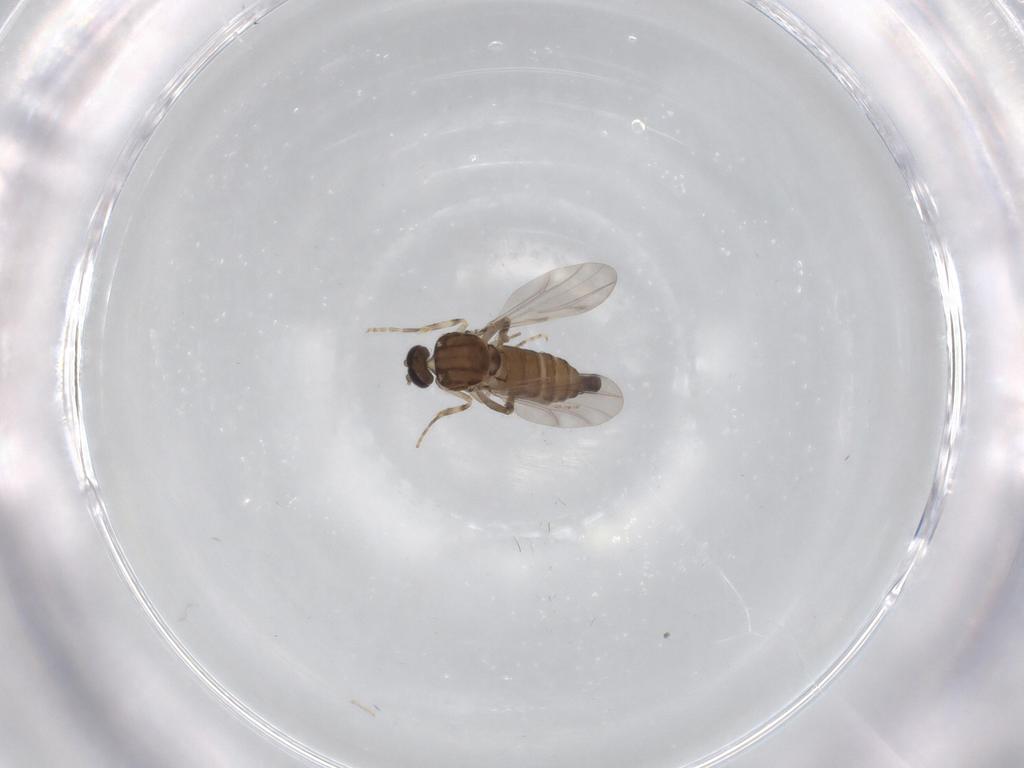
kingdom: Animalia
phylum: Arthropoda
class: Insecta
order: Diptera
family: Ceratopogonidae
